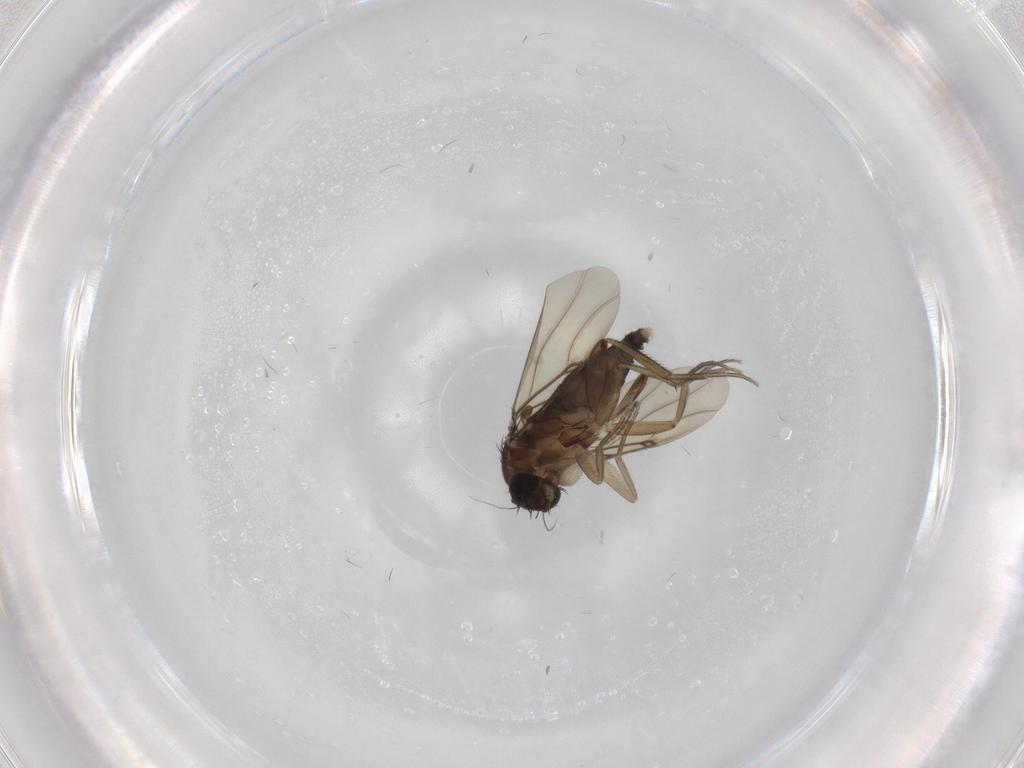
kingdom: Animalia
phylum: Arthropoda
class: Insecta
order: Diptera
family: Phoridae
